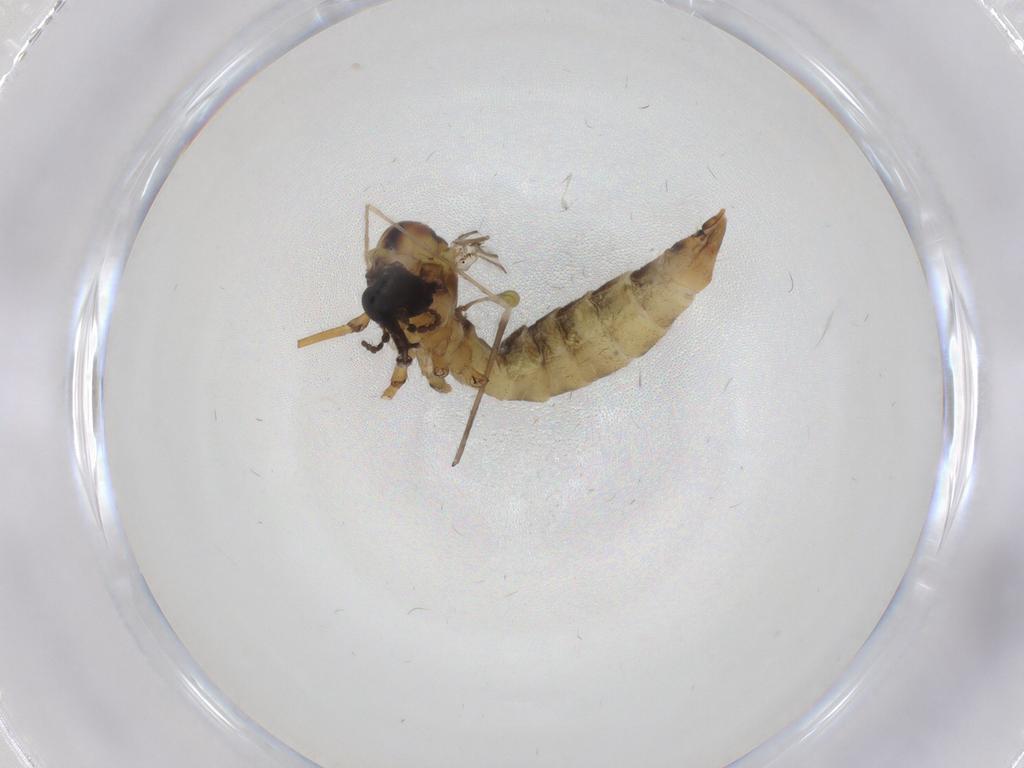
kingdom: Animalia
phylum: Arthropoda
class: Insecta
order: Diptera
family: Limoniidae
